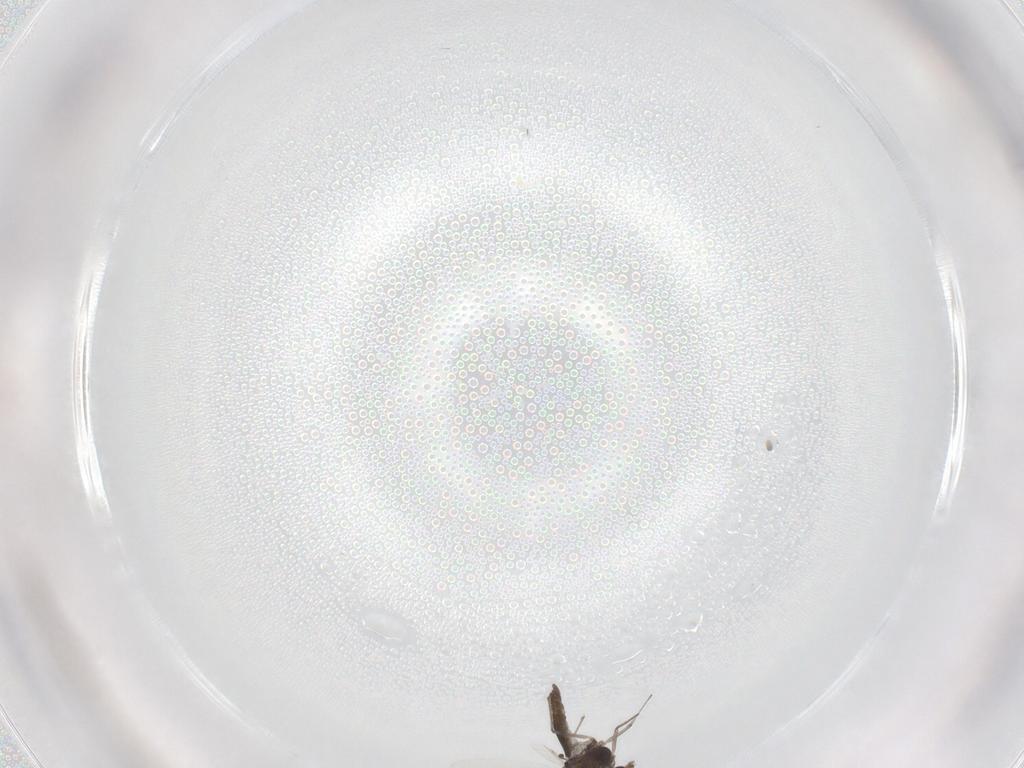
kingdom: Animalia
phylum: Arthropoda
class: Insecta
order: Diptera
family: Chironomidae
